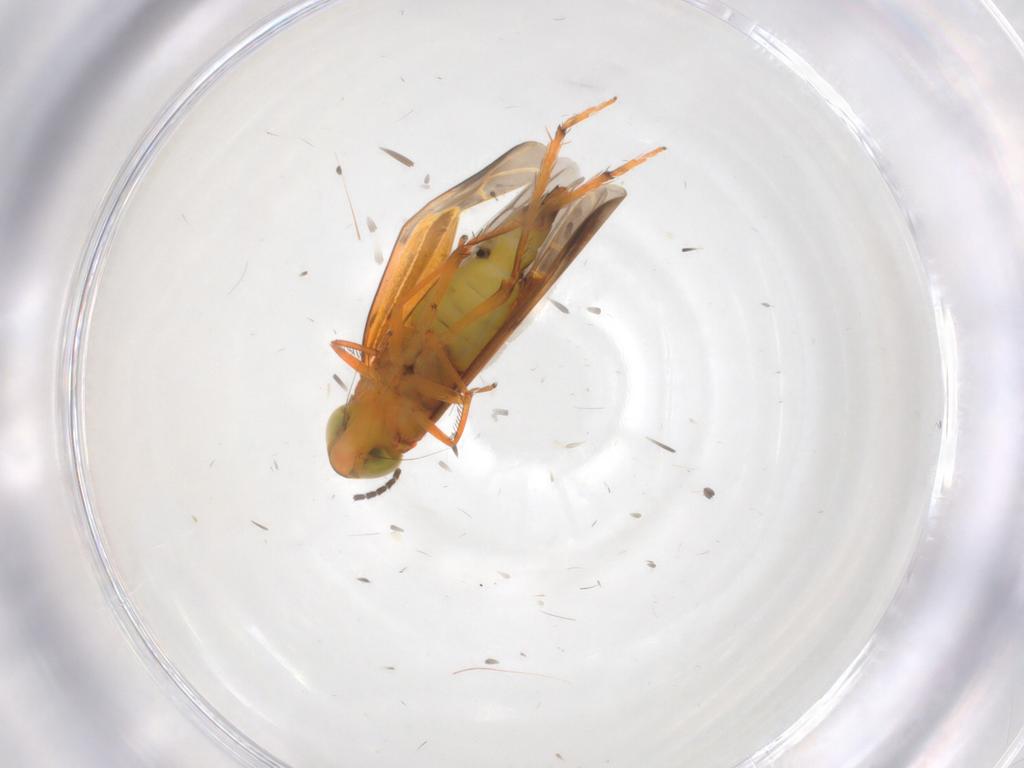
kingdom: Animalia
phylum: Arthropoda
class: Insecta
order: Hemiptera
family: Cicadellidae
